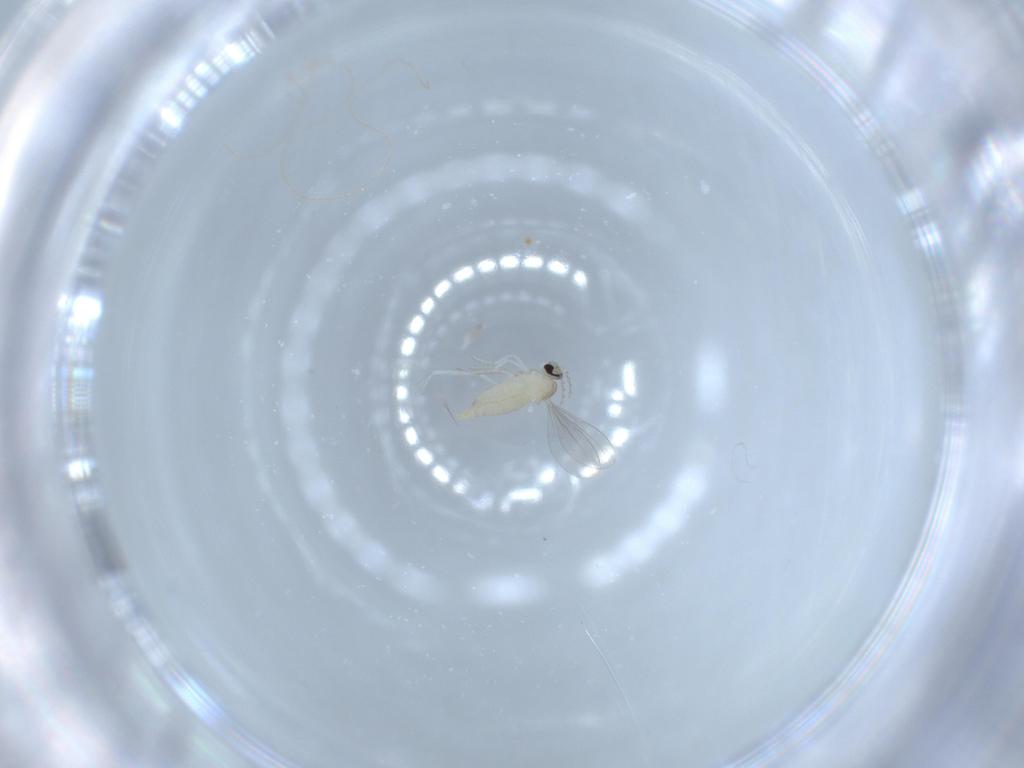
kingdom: Animalia
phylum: Arthropoda
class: Insecta
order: Diptera
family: Cecidomyiidae
